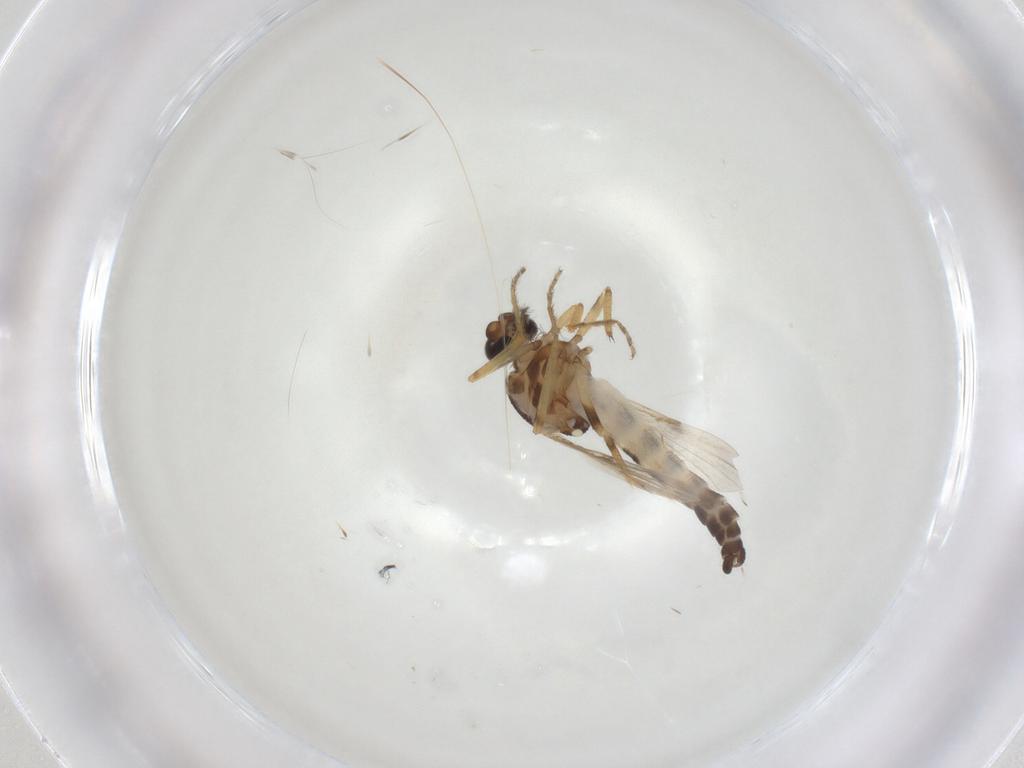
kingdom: Animalia
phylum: Arthropoda
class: Insecta
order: Diptera
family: Ceratopogonidae
